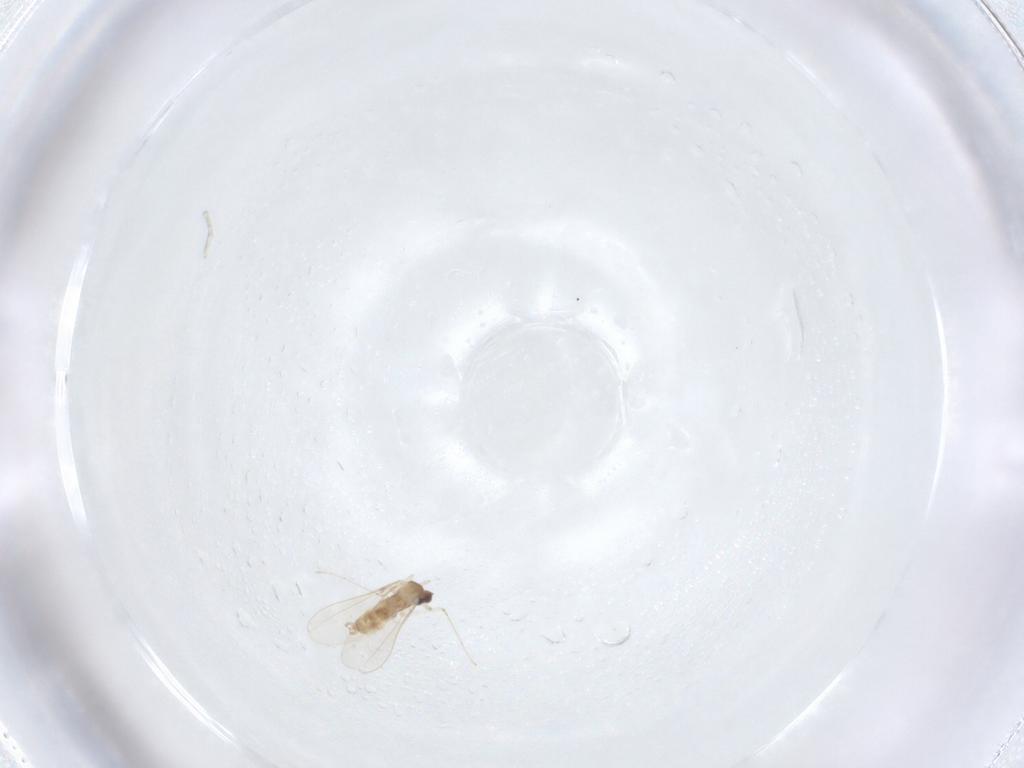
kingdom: Animalia
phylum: Arthropoda
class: Insecta
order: Diptera
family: Cecidomyiidae
